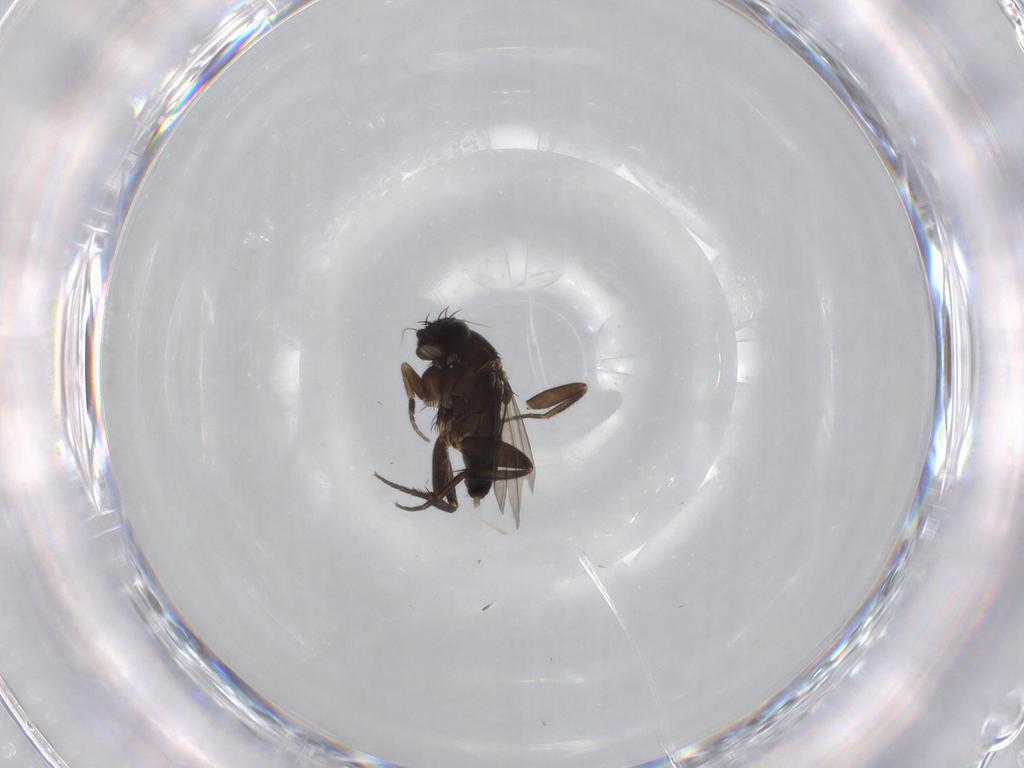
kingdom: Animalia
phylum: Arthropoda
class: Insecta
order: Diptera
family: Phoridae
